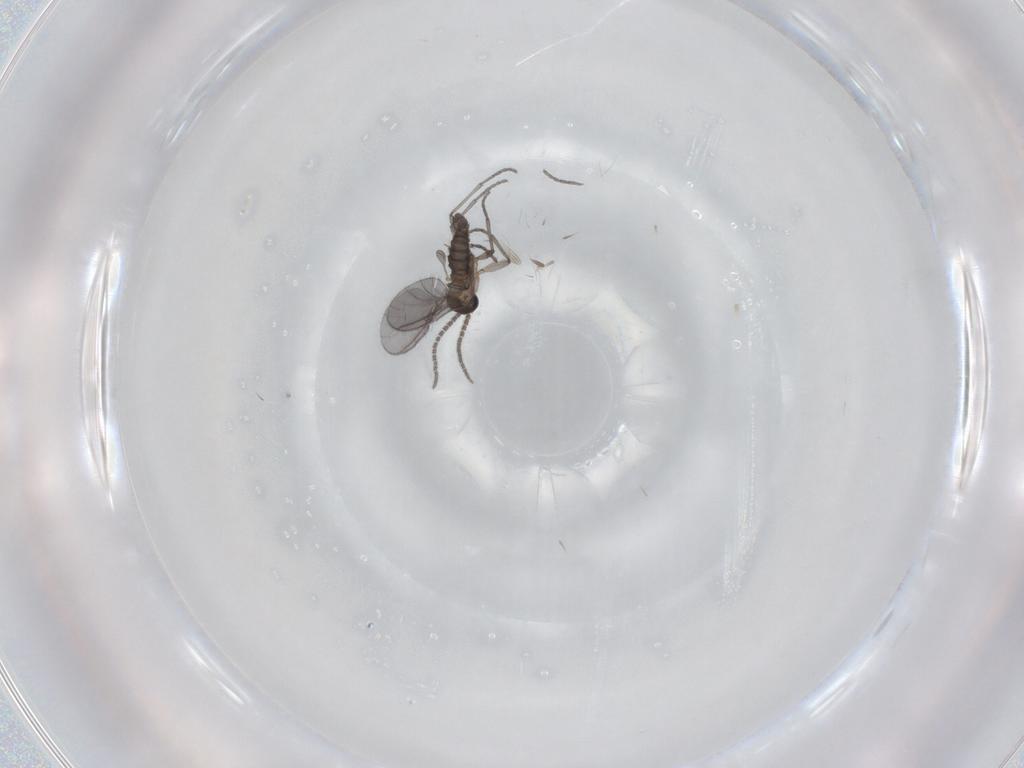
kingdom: Animalia
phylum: Arthropoda
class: Insecta
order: Diptera
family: Sciaridae
